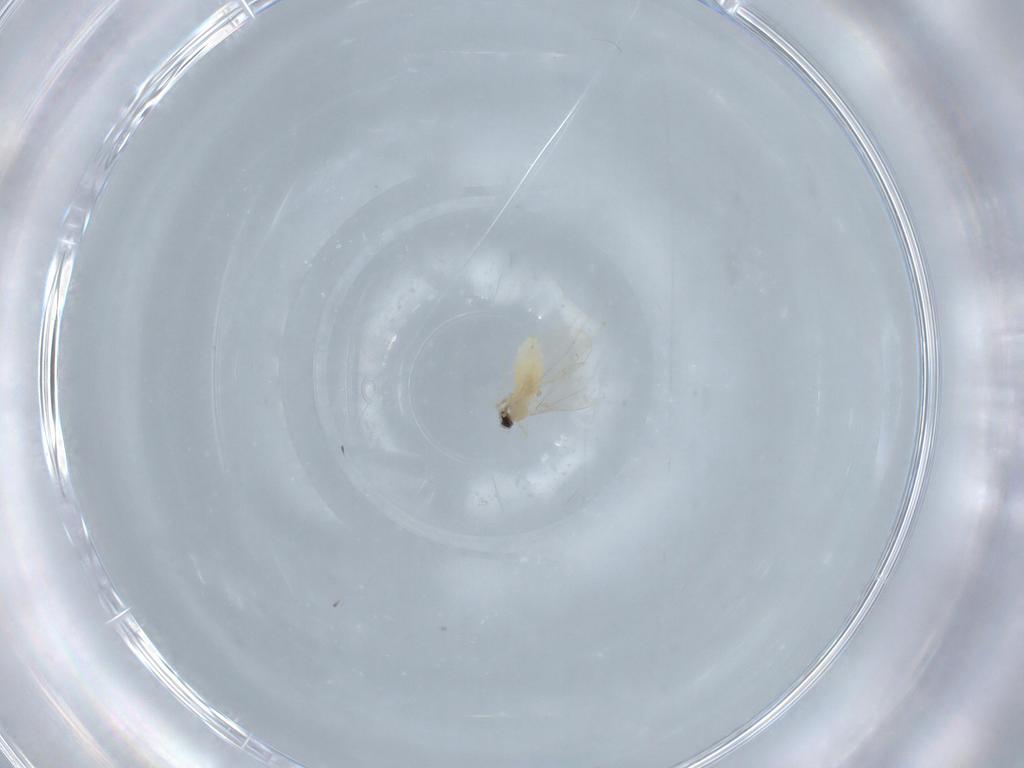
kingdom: Animalia
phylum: Arthropoda
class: Insecta
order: Diptera
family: Cecidomyiidae
